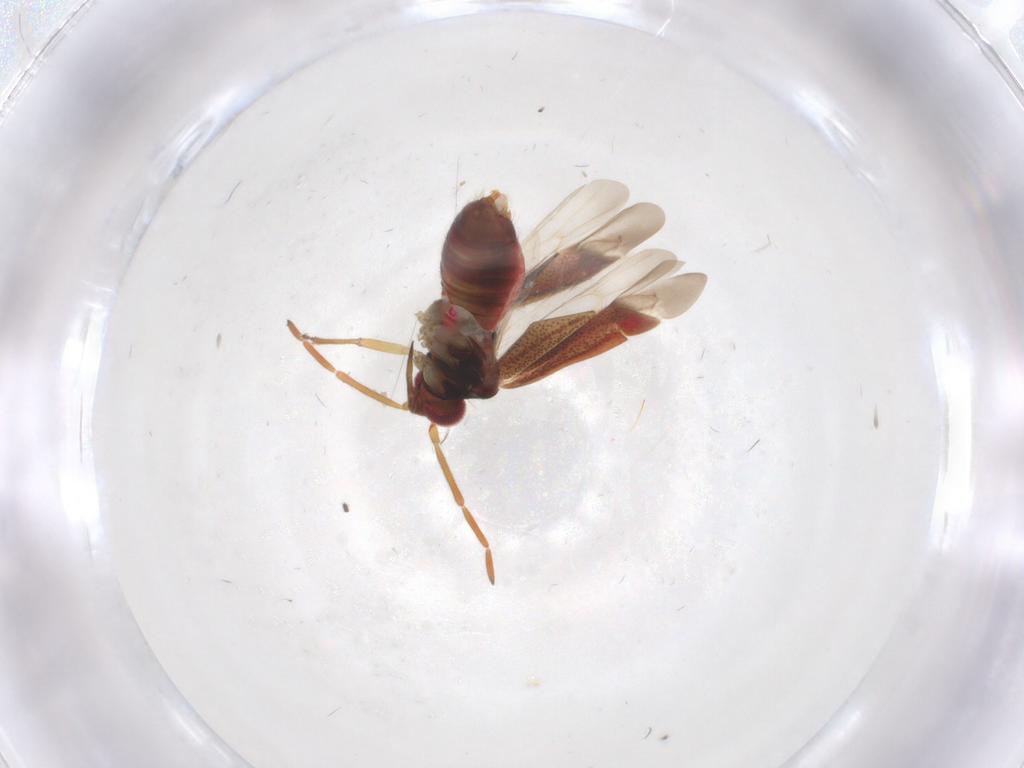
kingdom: Animalia
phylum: Arthropoda
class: Insecta
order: Hemiptera
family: Miridae
